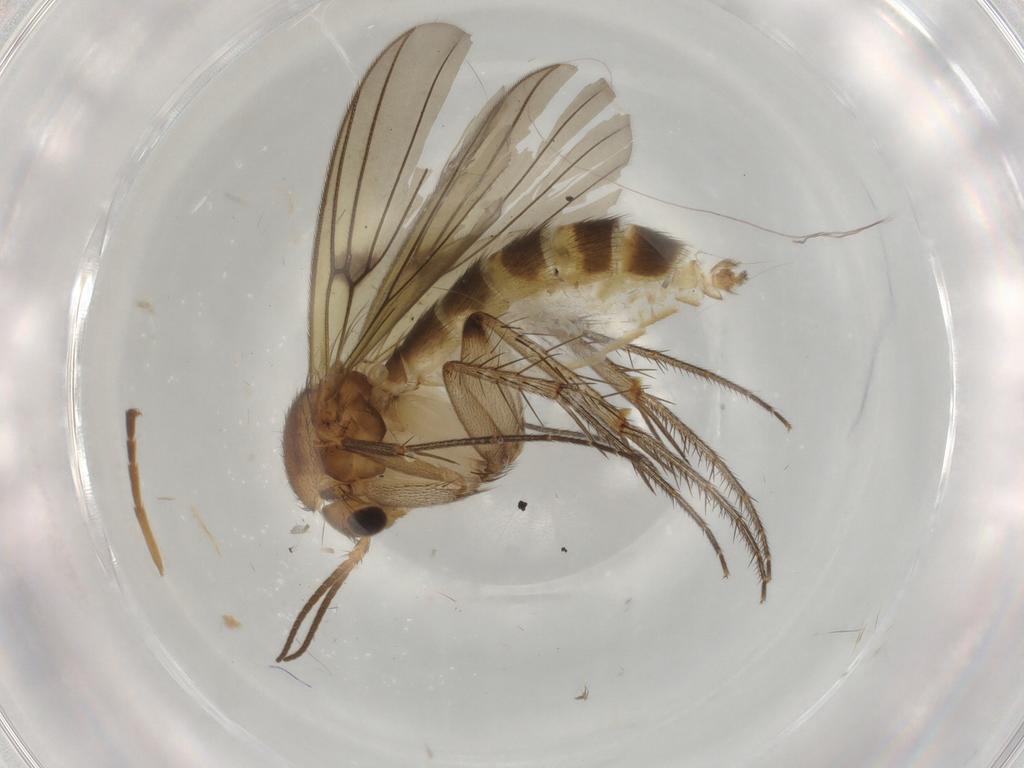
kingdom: Animalia
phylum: Arthropoda
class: Insecta
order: Diptera
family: Mycetophilidae
